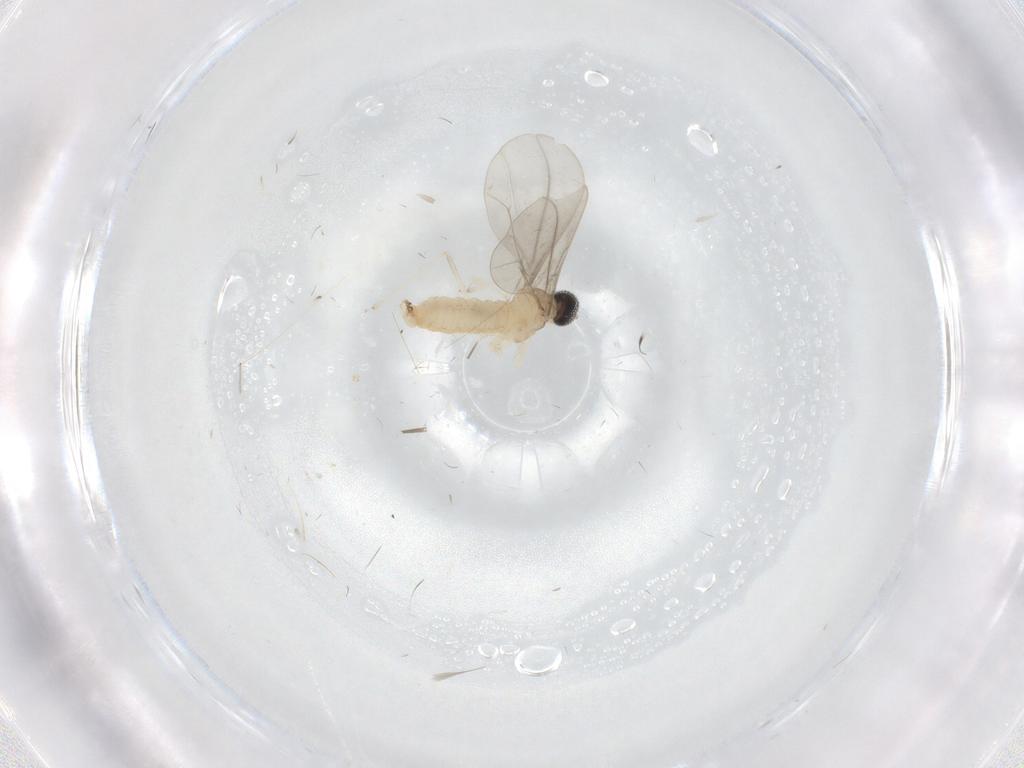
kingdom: Animalia
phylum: Arthropoda
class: Insecta
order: Diptera
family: Cecidomyiidae
